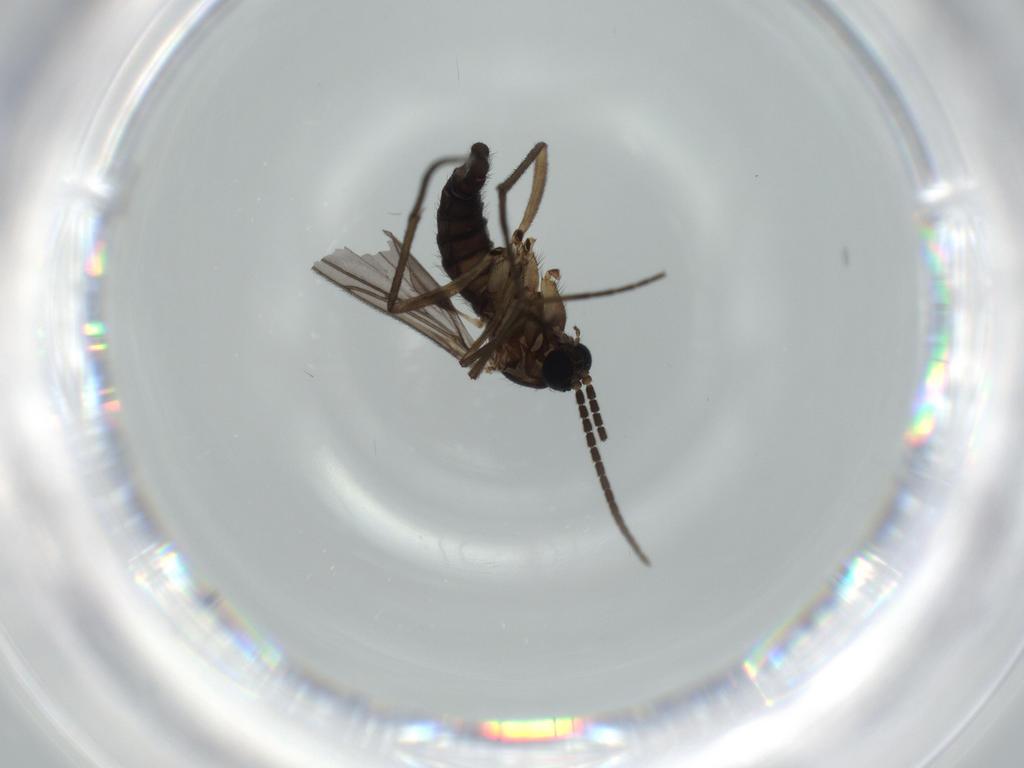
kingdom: Animalia
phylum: Arthropoda
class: Insecta
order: Diptera
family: Sciaridae
